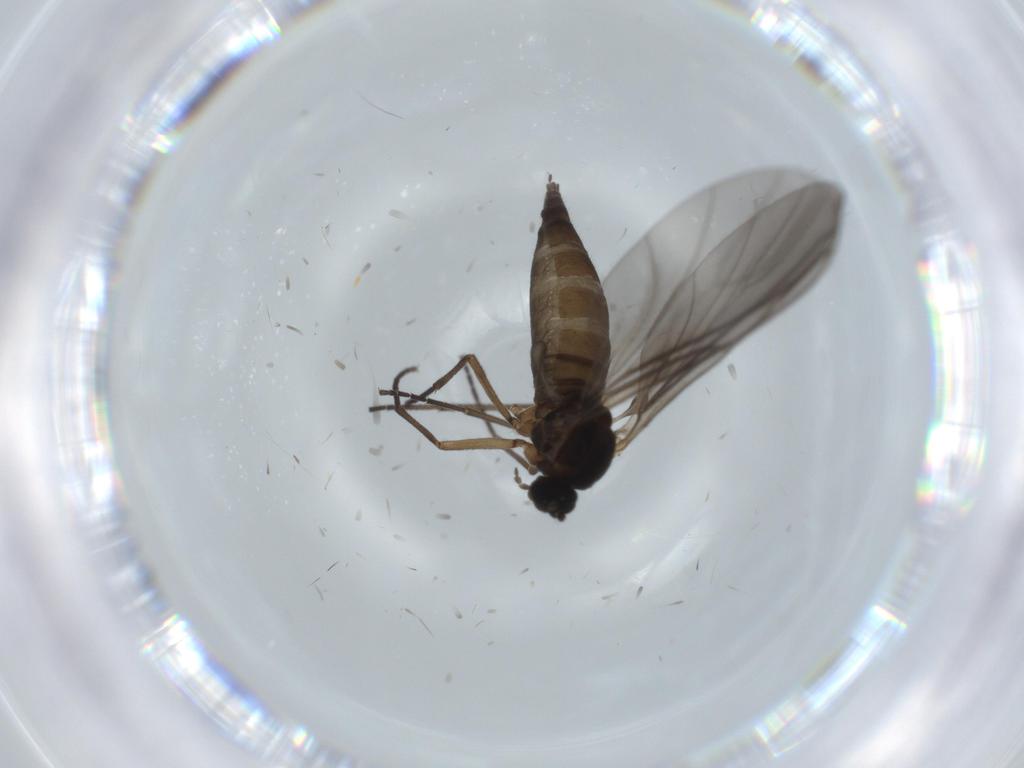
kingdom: Animalia
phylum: Arthropoda
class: Insecta
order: Diptera
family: Sciaridae
